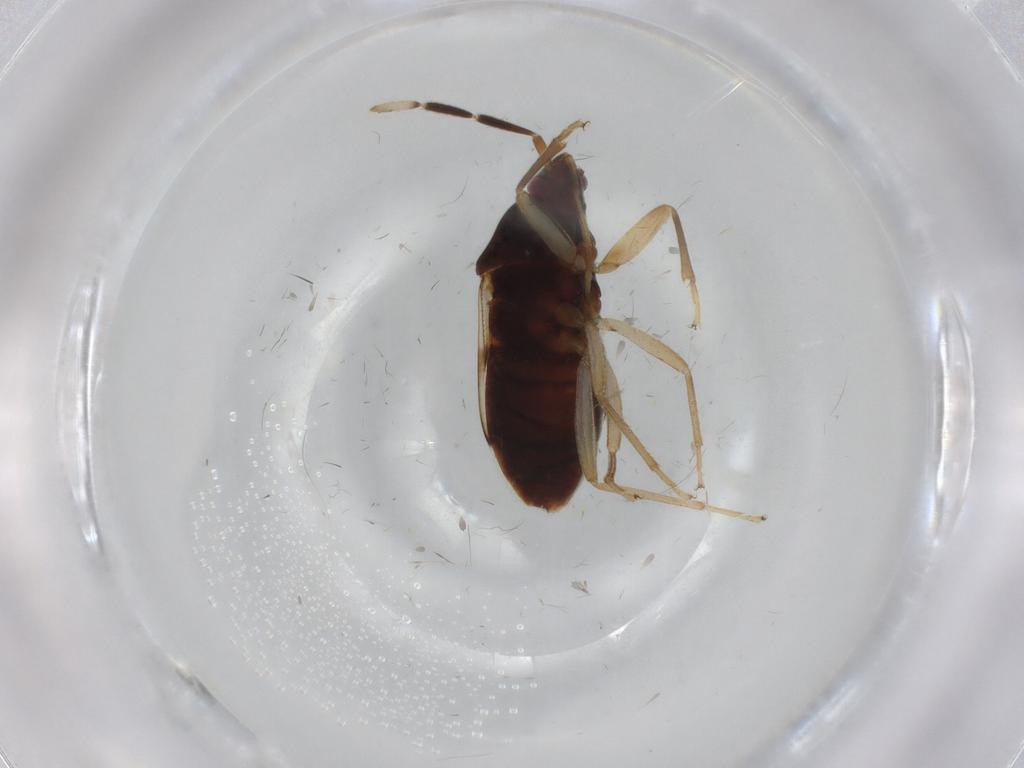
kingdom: Animalia
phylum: Arthropoda
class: Insecta
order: Hemiptera
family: Rhyparochromidae
